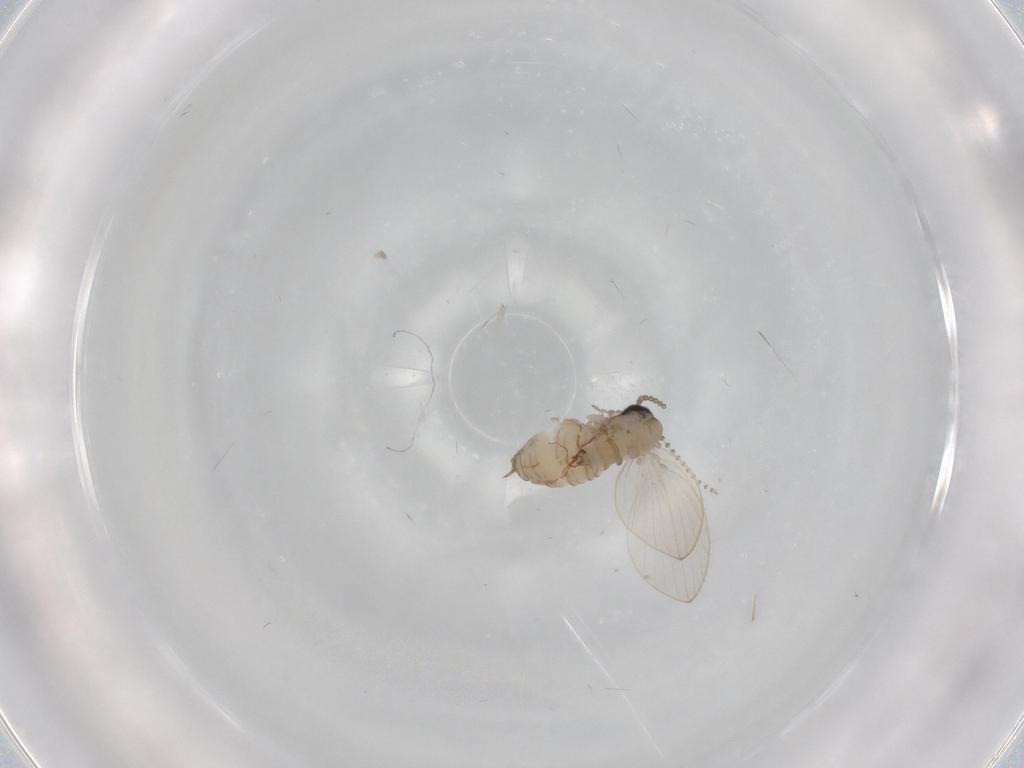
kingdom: Animalia
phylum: Arthropoda
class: Insecta
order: Diptera
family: Psychodidae
